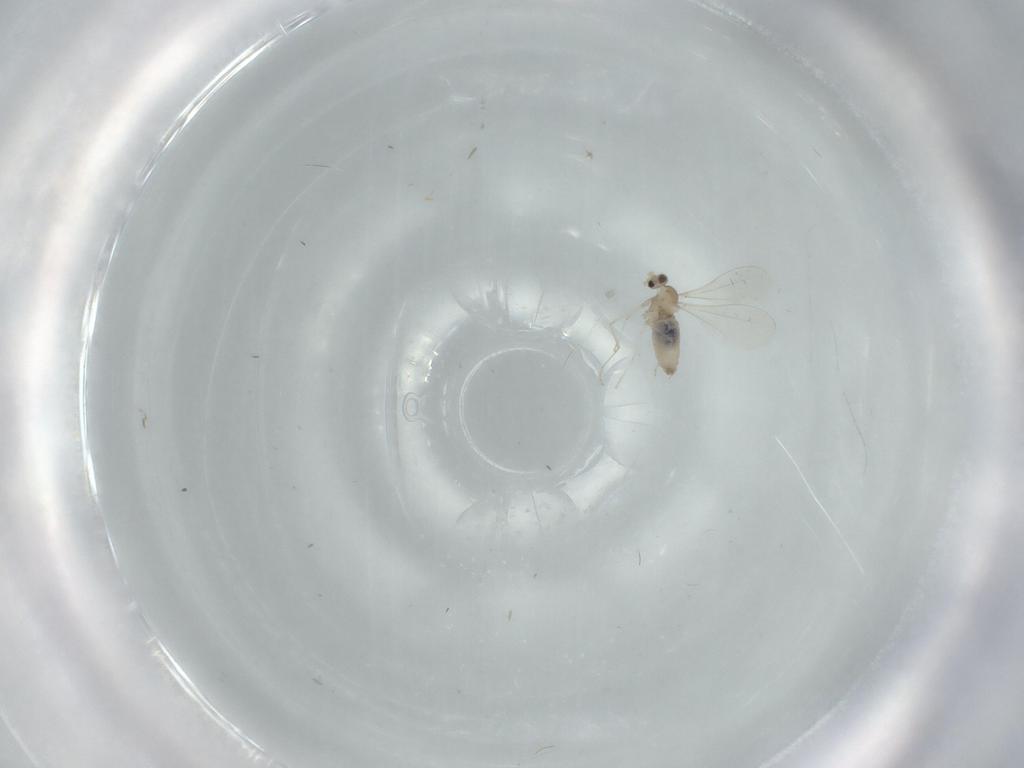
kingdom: Animalia
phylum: Arthropoda
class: Insecta
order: Diptera
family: Cecidomyiidae
